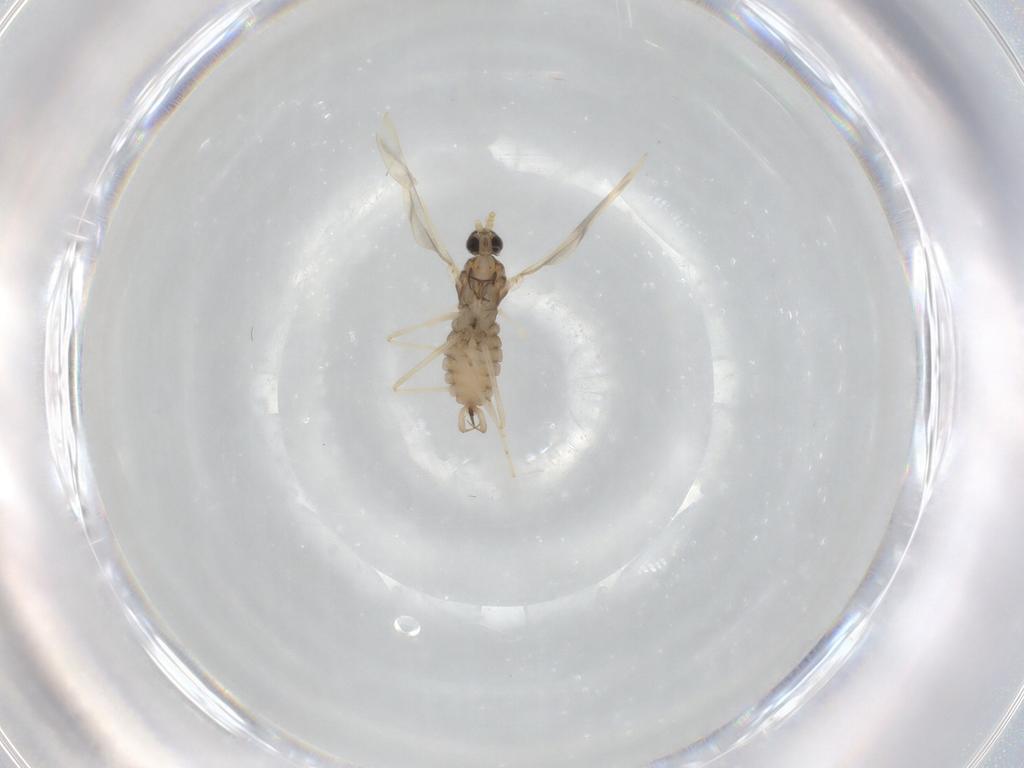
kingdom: Animalia
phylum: Arthropoda
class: Insecta
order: Diptera
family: Cecidomyiidae
